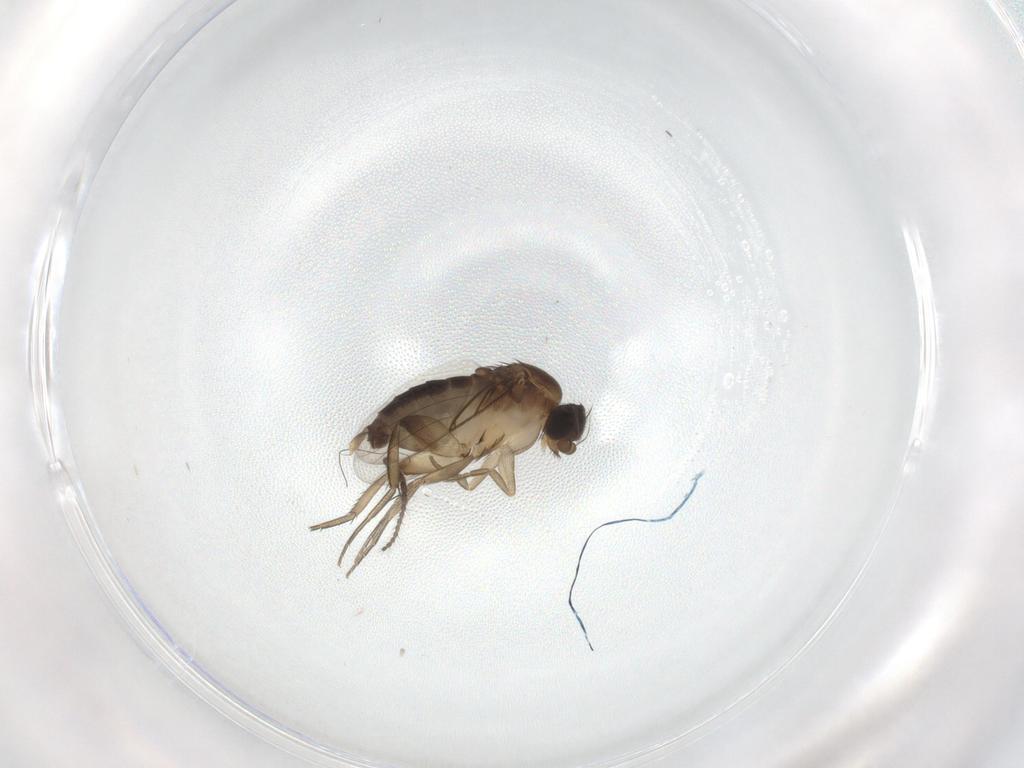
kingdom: Animalia
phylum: Arthropoda
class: Insecta
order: Diptera
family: Phoridae
